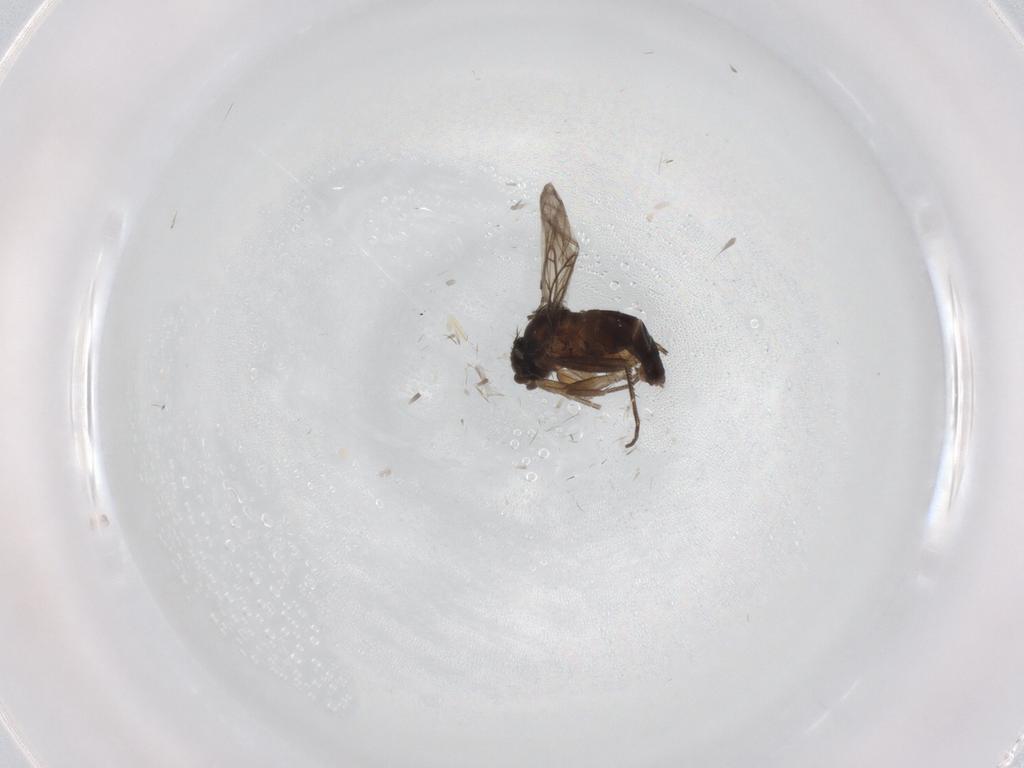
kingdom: Animalia
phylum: Arthropoda
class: Insecta
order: Diptera
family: Phoridae
